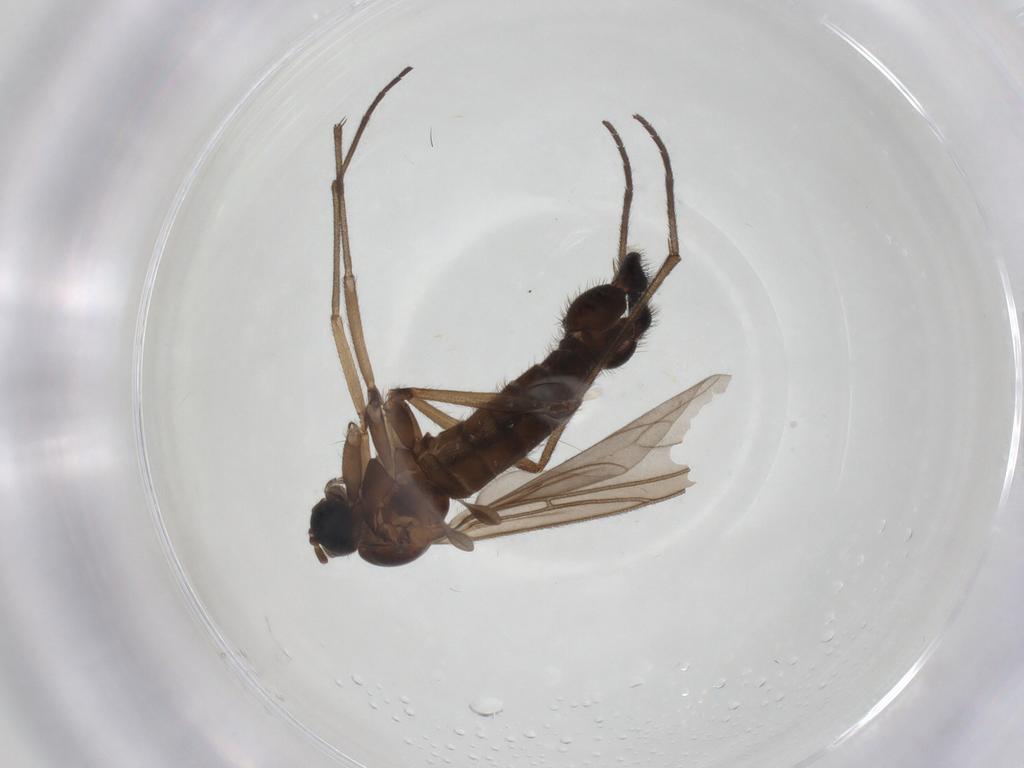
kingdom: Animalia
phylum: Arthropoda
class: Insecta
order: Diptera
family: Sciaridae
